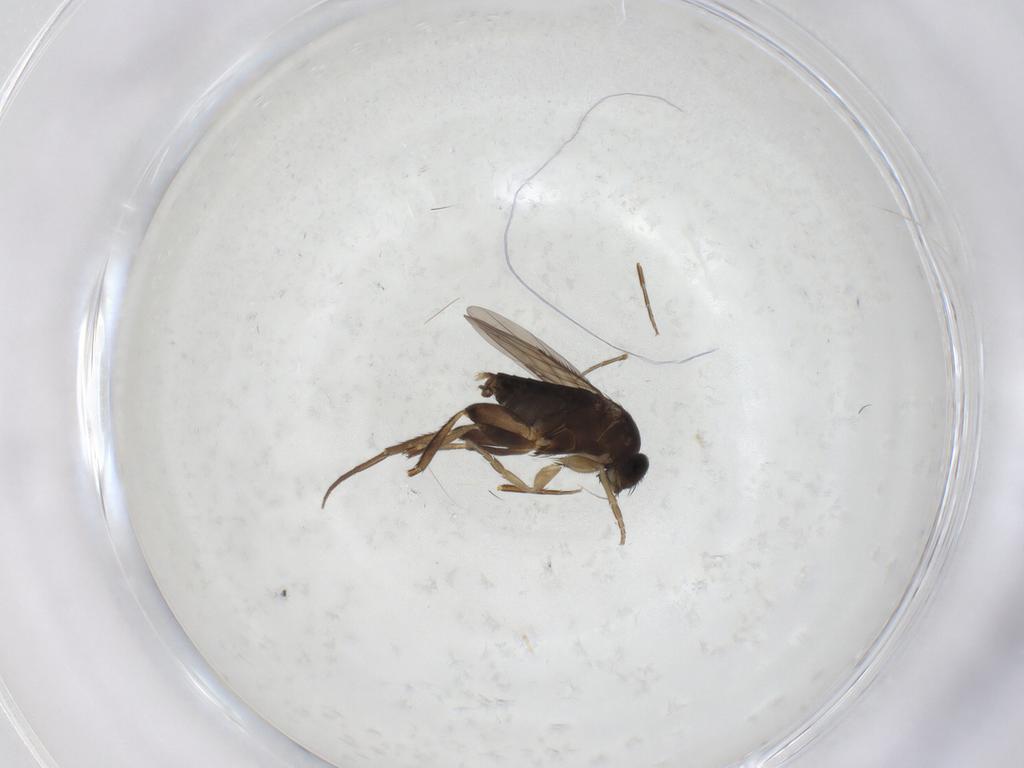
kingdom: Animalia
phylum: Arthropoda
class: Insecta
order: Diptera
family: Phoridae
